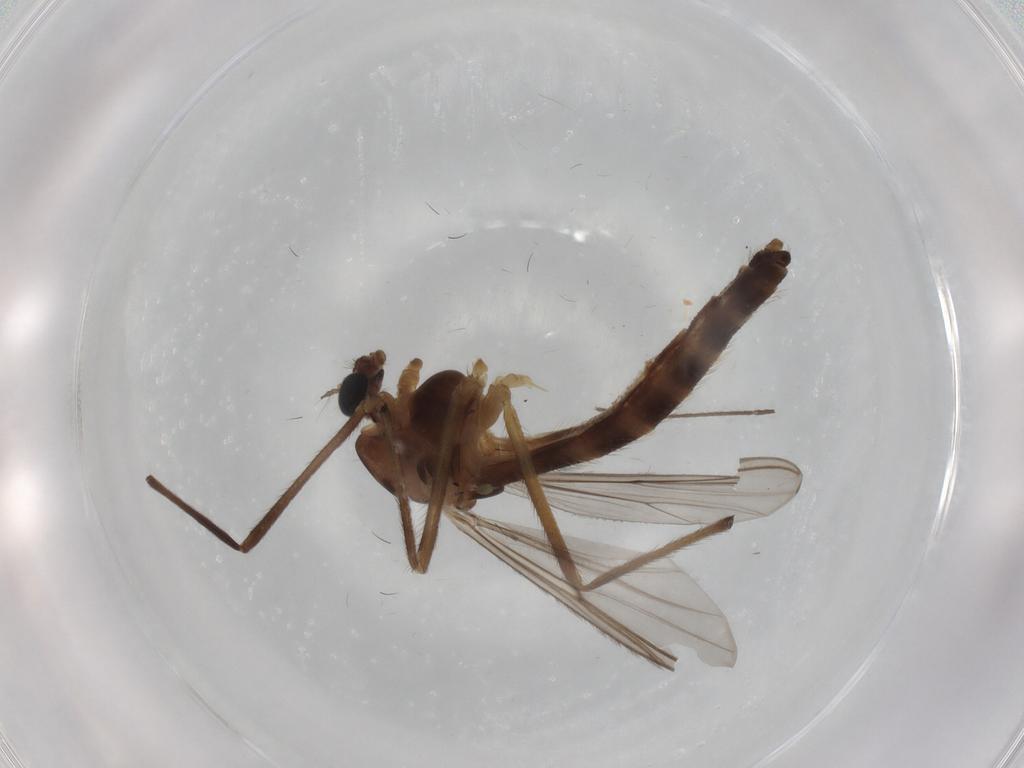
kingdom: Animalia
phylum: Arthropoda
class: Insecta
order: Diptera
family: Chironomidae
